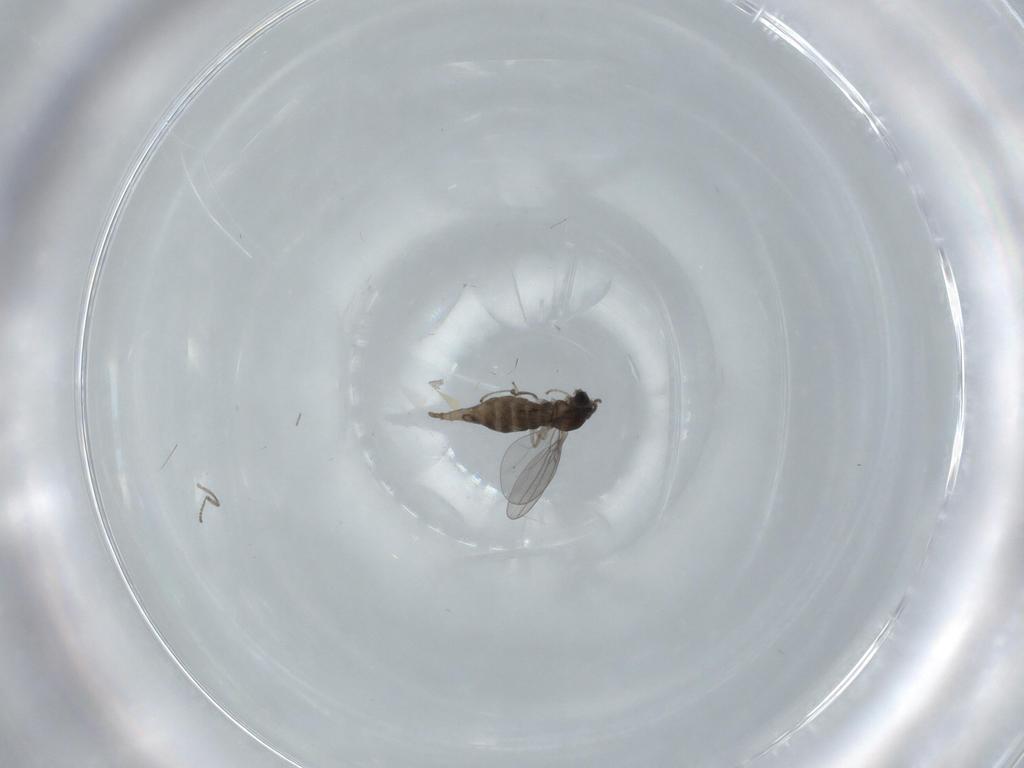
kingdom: Animalia
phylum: Arthropoda
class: Insecta
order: Diptera
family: Cecidomyiidae
